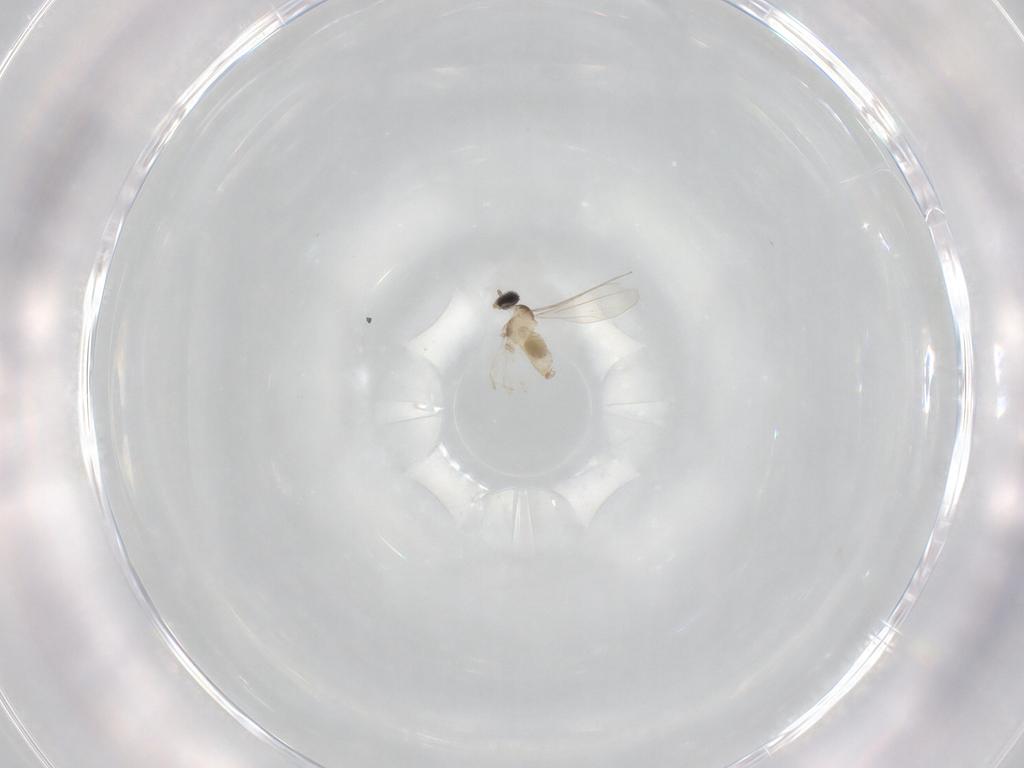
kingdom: Animalia
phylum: Arthropoda
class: Insecta
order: Diptera
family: Cecidomyiidae
